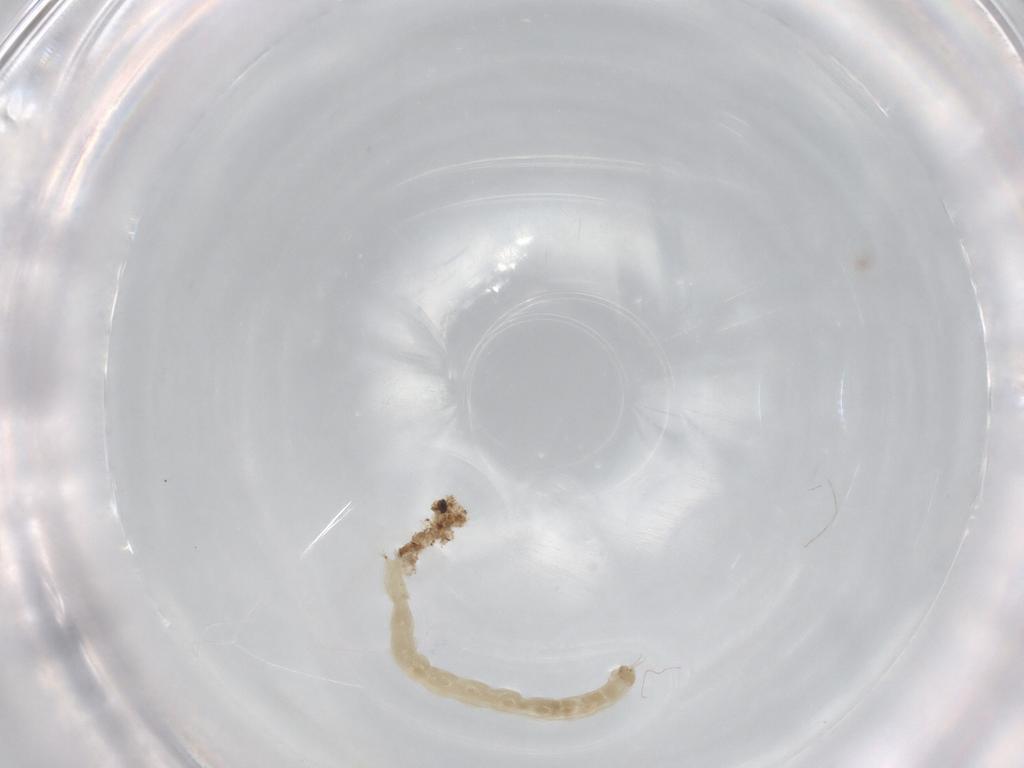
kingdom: Animalia
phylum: Arthropoda
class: Insecta
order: Diptera
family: Chironomidae
